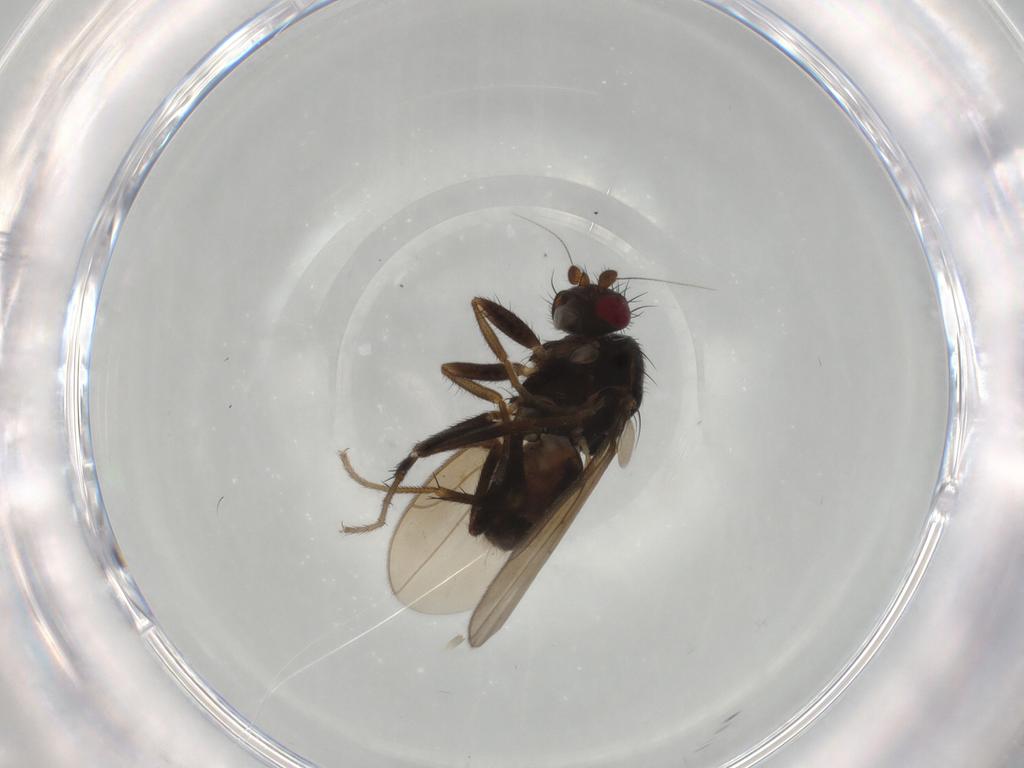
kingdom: Animalia
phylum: Arthropoda
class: Insecta
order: Diptera
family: Sphaeroceridae
